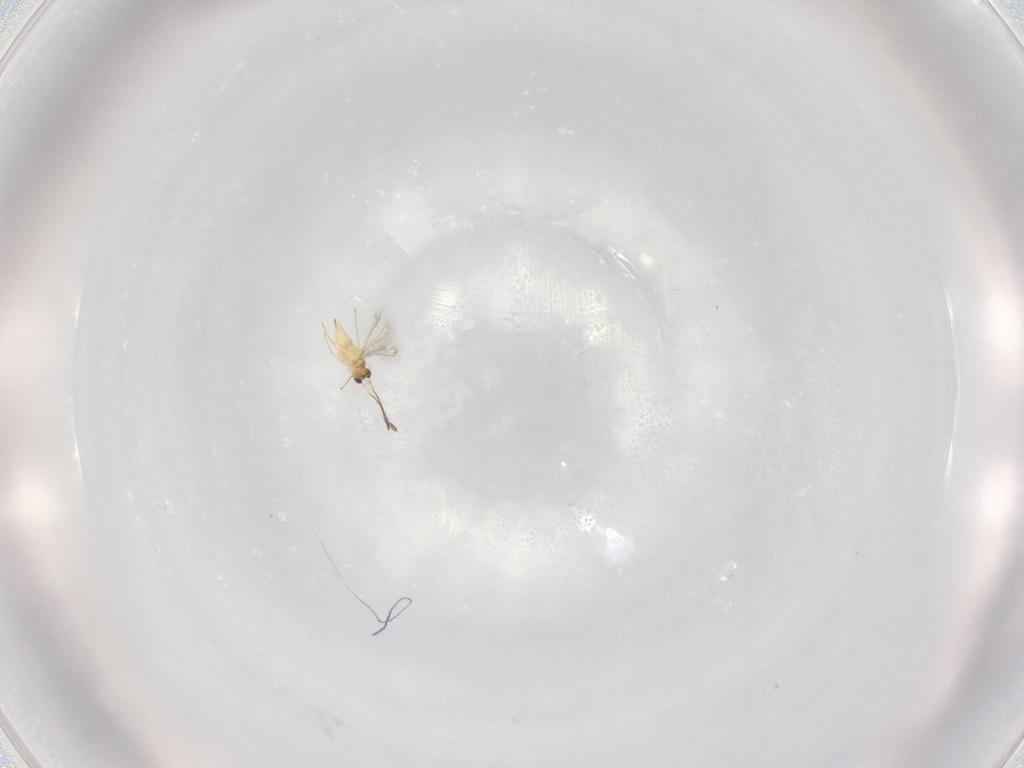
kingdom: Animalia
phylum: Arthropoda
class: Insecta
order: Hymenoptera
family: Mymaridae
